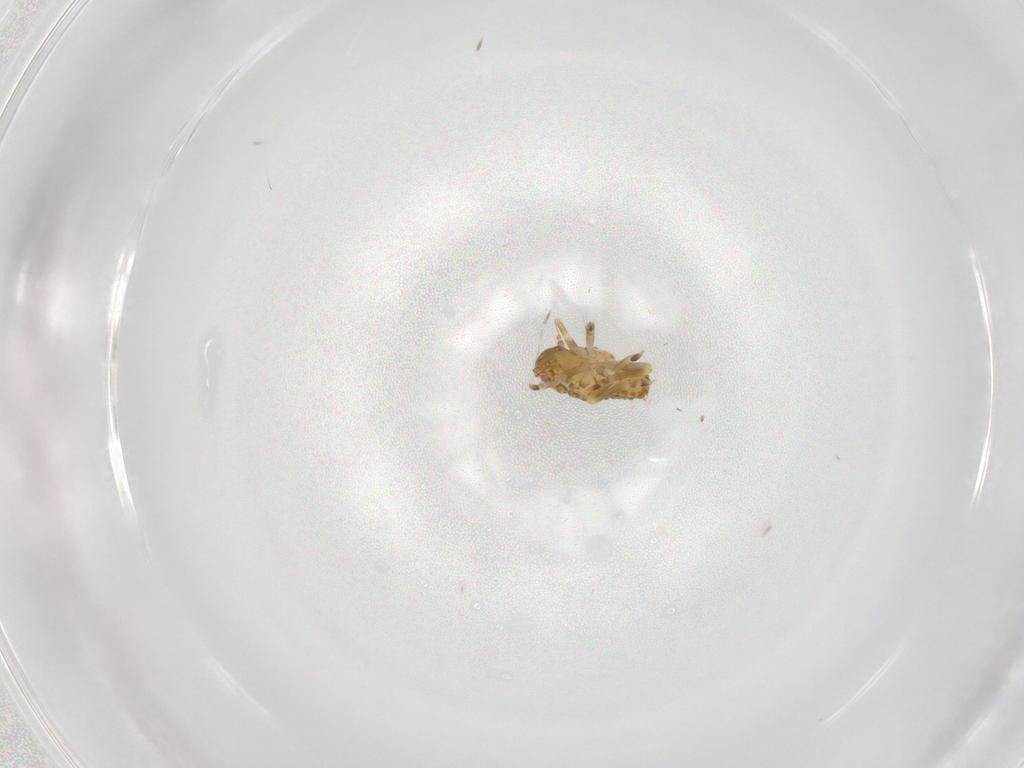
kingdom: Animalia
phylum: Arthropoda
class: Insecta
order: Hemiptera
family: Flatidae
